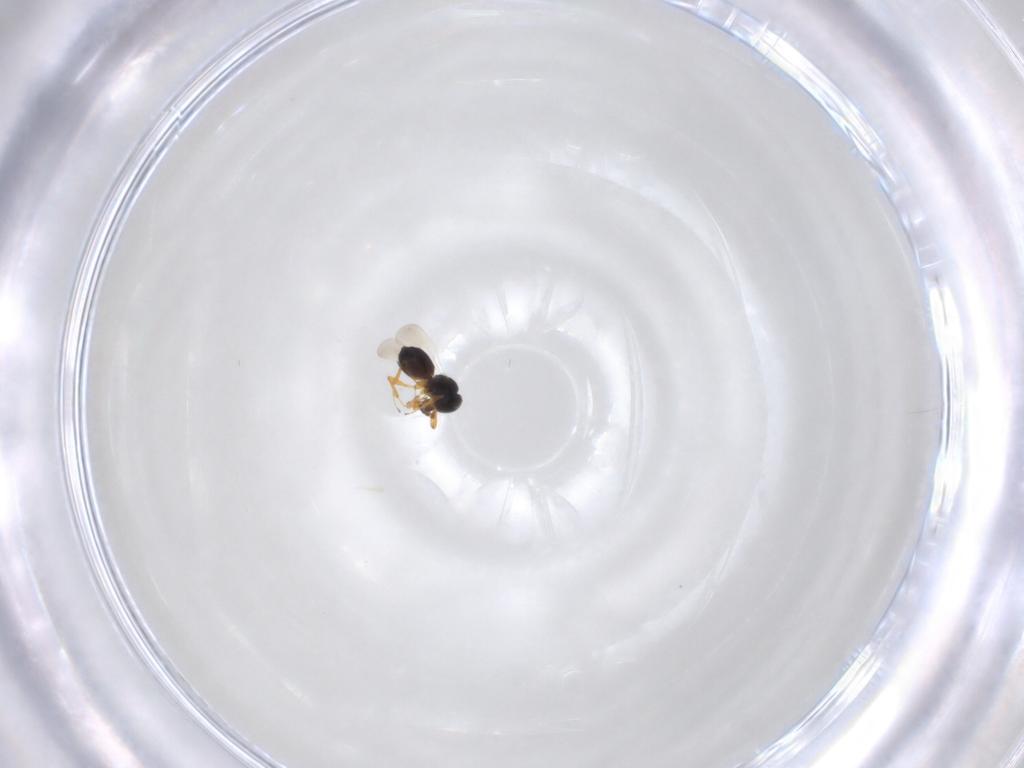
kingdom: Animalia
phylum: Arthropoda
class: Insecta
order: Hymenoptera
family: Platygastridae
